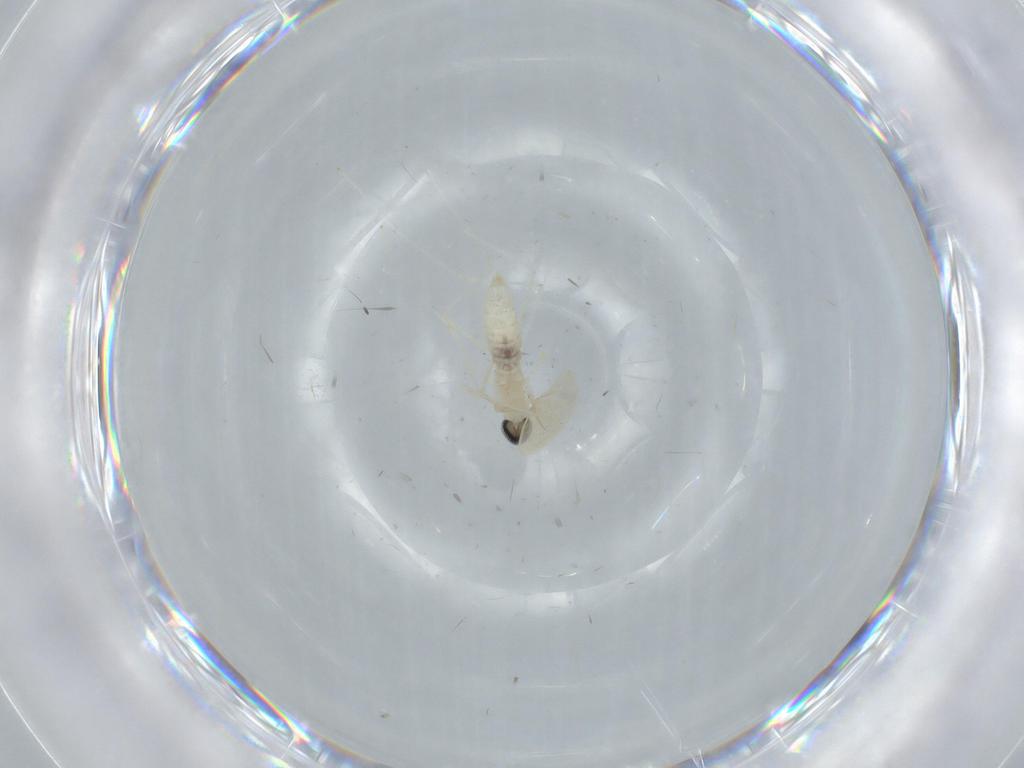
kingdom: Animalia
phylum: Arthropoda
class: Insecta
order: Diptera
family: Cecidomyiidae
